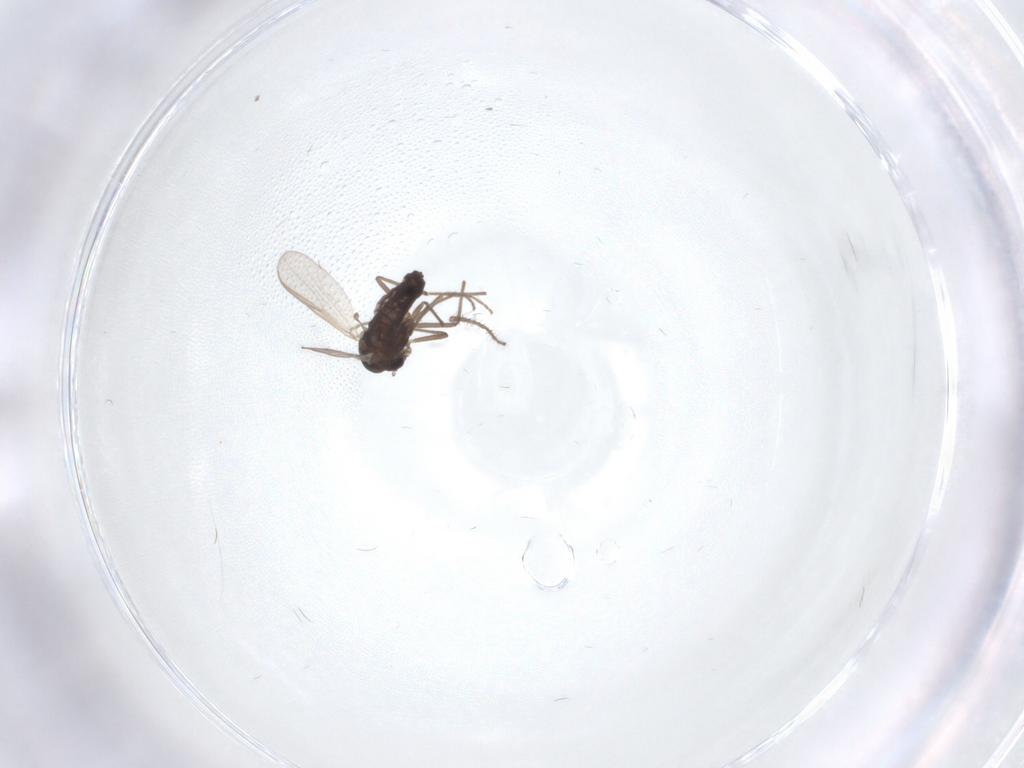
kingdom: Animalia
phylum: Arthropoda
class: Insecta
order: Diptera
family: Chironomidae
